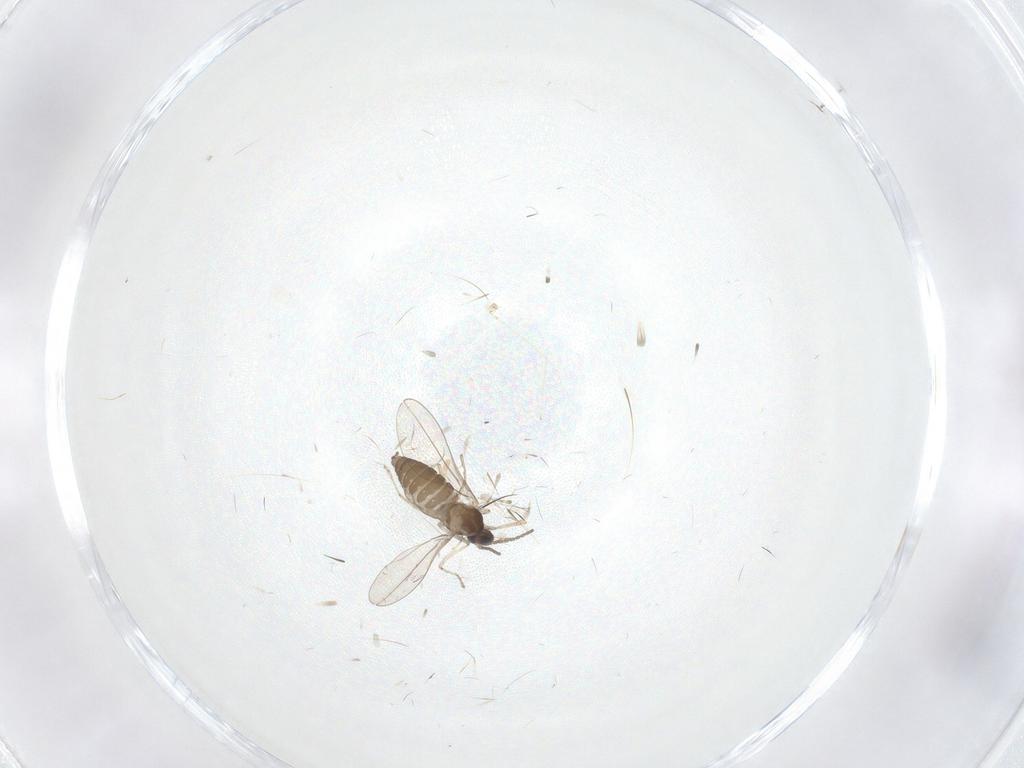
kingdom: Animalia
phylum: Arthropoda
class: Insecta
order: Diptera
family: Cecidomyiidae
